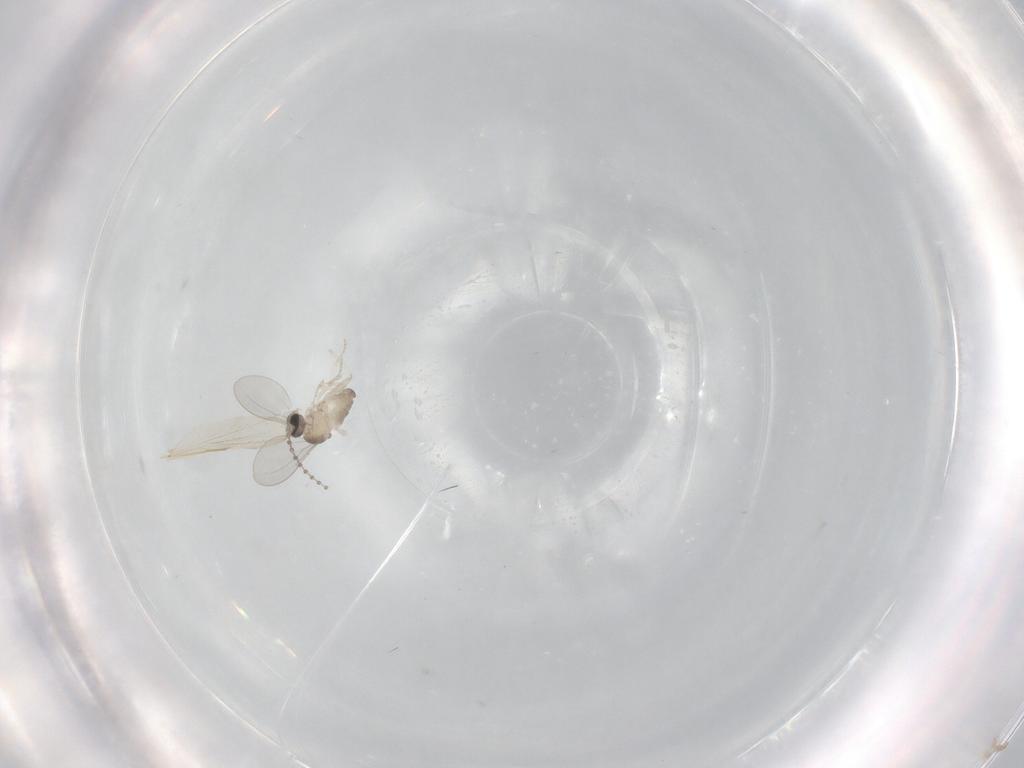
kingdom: Animalia
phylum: Arthropoda
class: Insecta
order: Diptera
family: Cecidomyiidae
